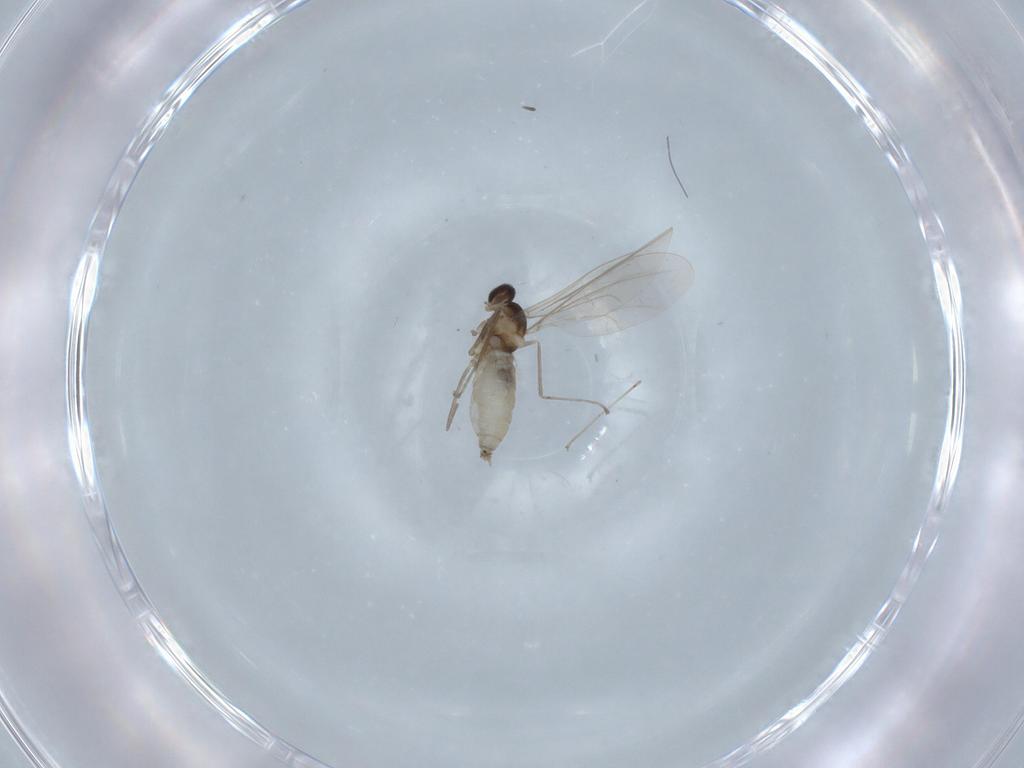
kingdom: Animalia
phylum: Arthropoda
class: Insecta
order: Diptera
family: Cecidomyiidae
